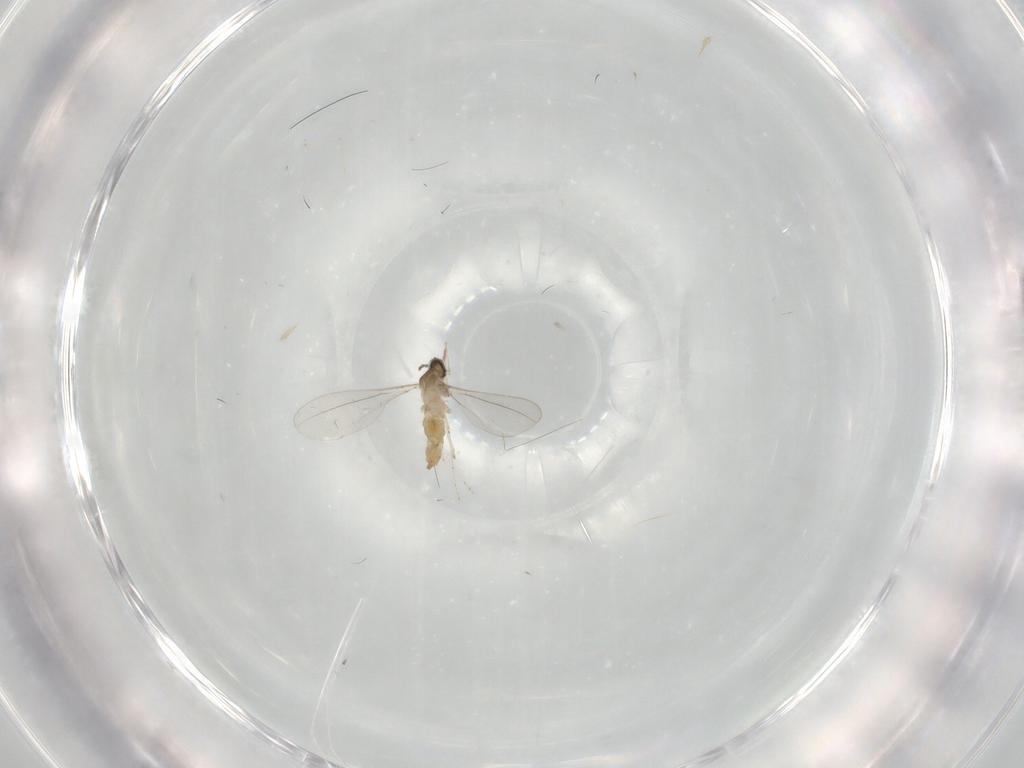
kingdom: Animalia
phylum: Arthropoda
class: Insecta
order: Diptera
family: Cecidomyiidae
